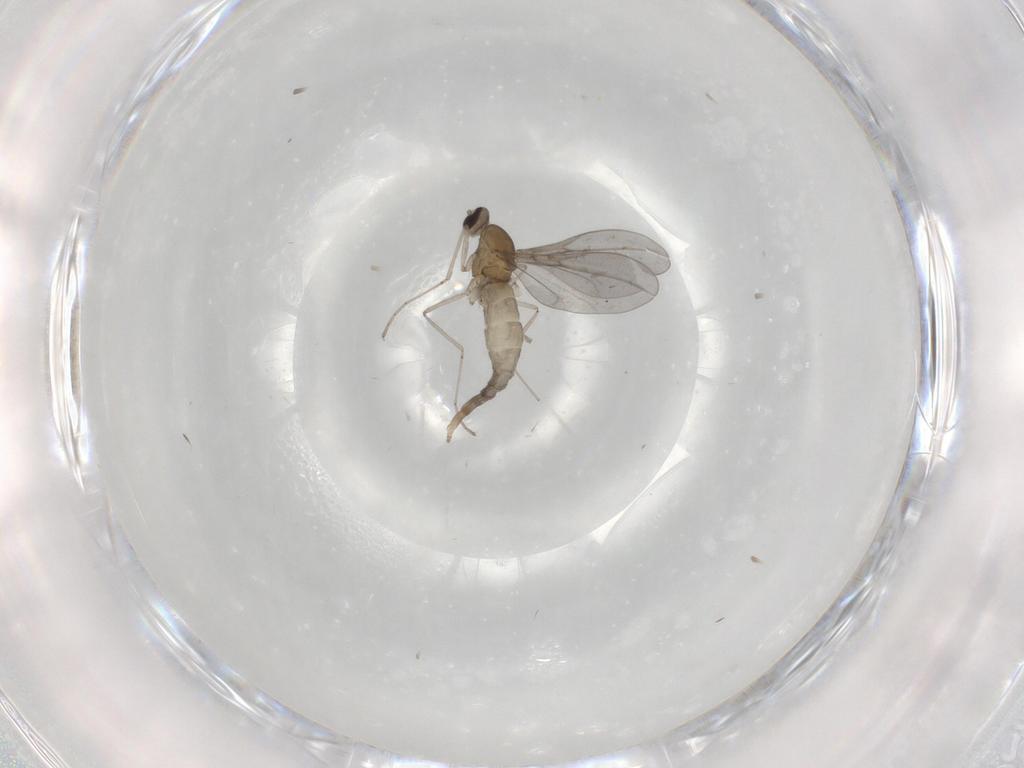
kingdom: Animalia
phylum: Arthropoda
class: Insecta
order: Diptera
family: Cecidomyiidae
